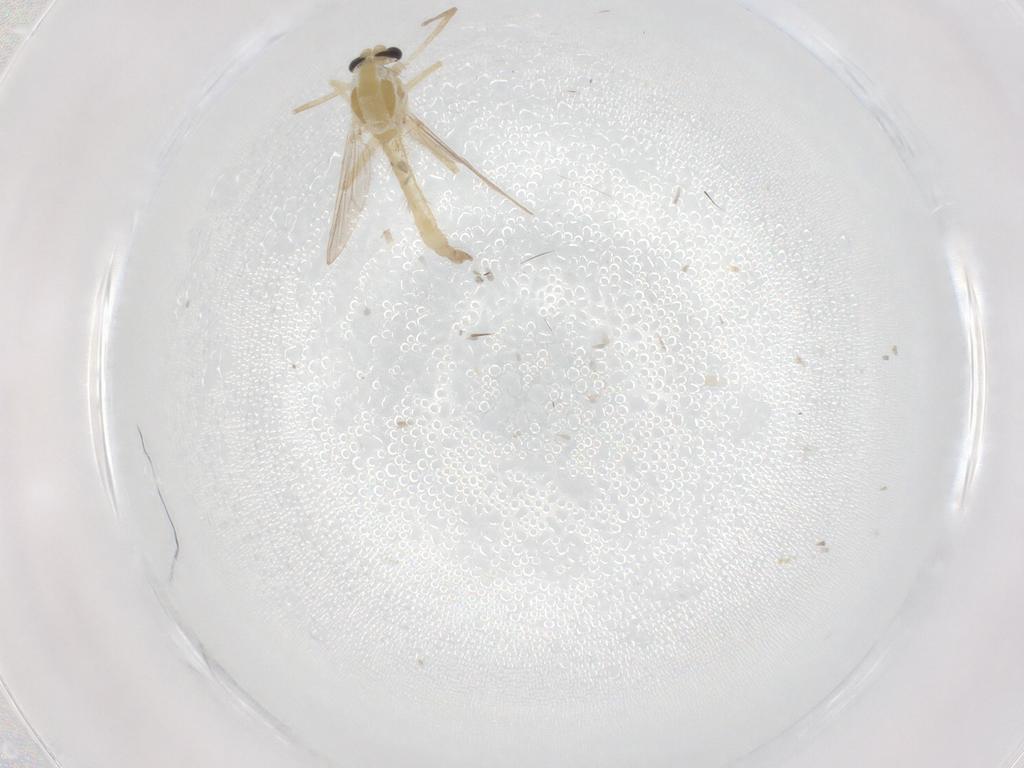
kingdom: Animalia
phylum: Arthropoda
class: Insecta
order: Diptera
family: Chironomidae
